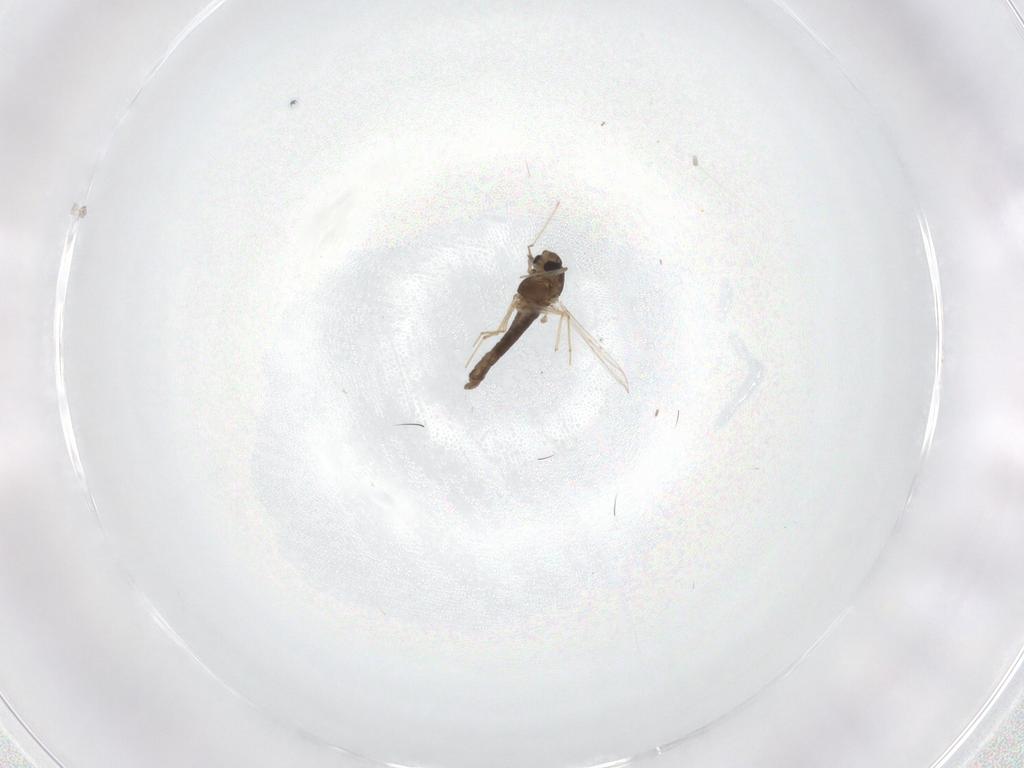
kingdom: Animalia
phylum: Arthropoda
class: Insecta
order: Diptera
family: Chironomidae
